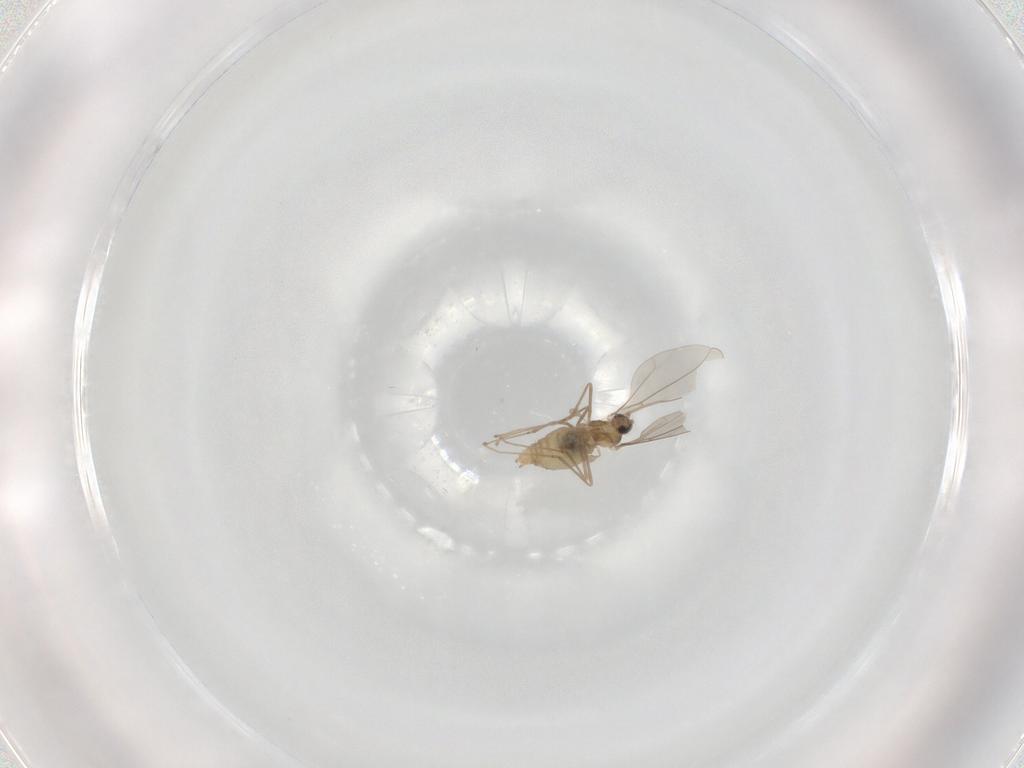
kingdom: Animalia
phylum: Arthropoda
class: Insecta
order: Diptera
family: Phoridae
